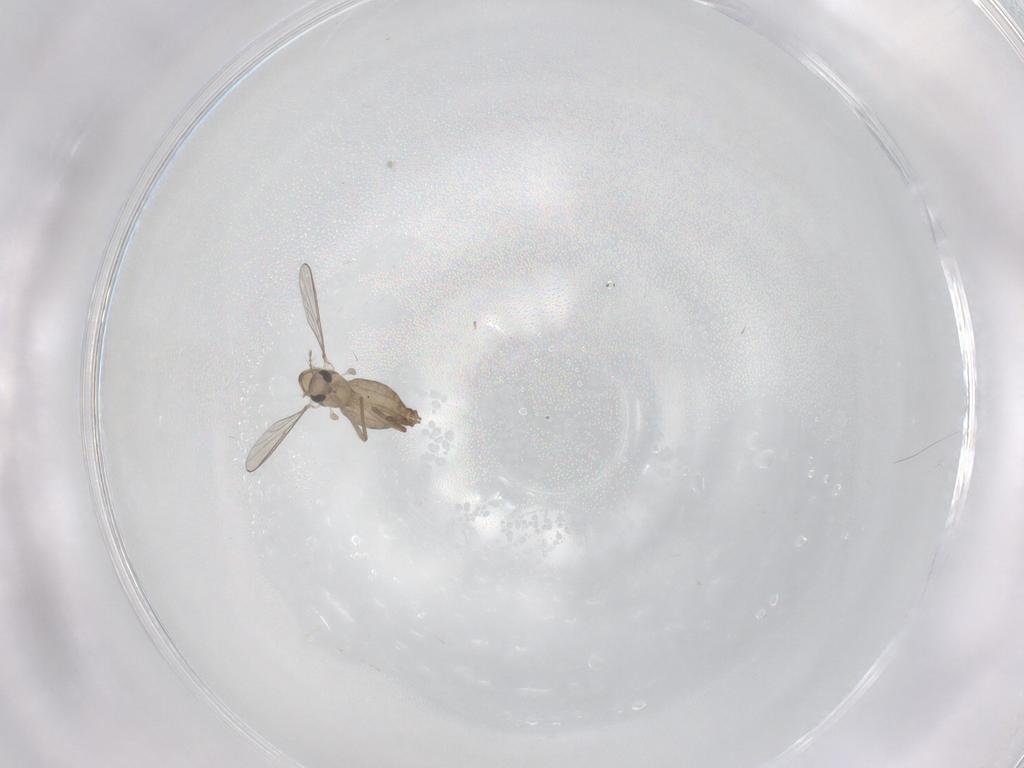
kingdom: Animalia
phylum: Arthropoda
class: Insecta
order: Diptera
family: Chironomidae
